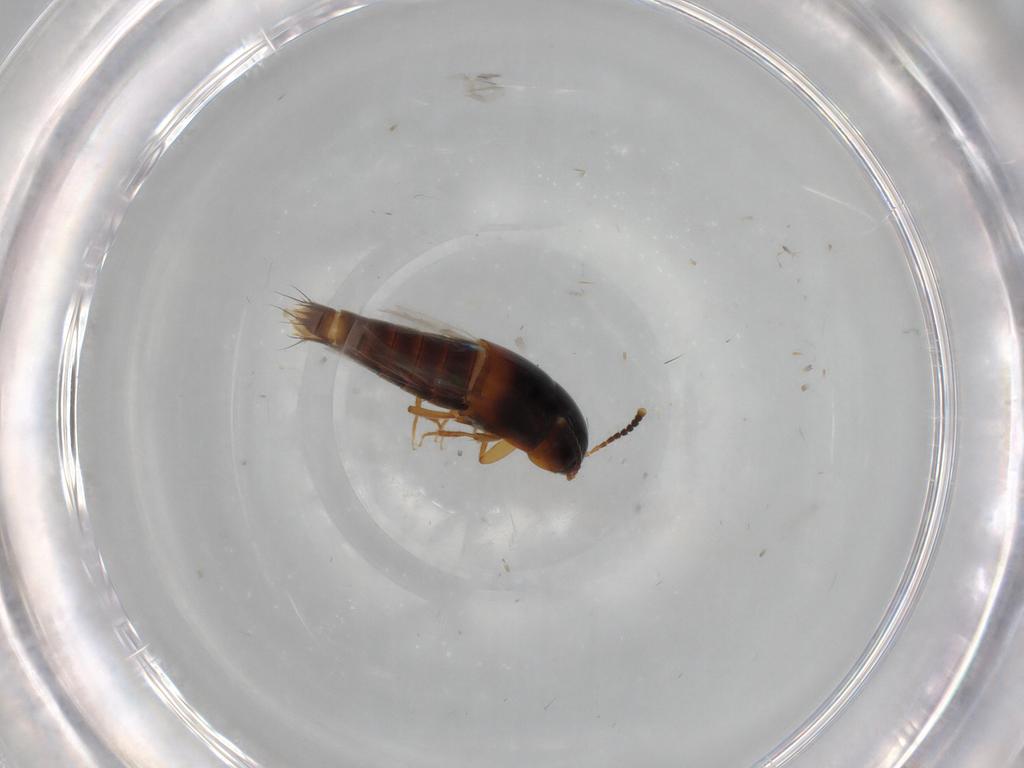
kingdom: Animalia
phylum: Arthropoda
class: Insecta
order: Coleoptera
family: Staphylinidae
